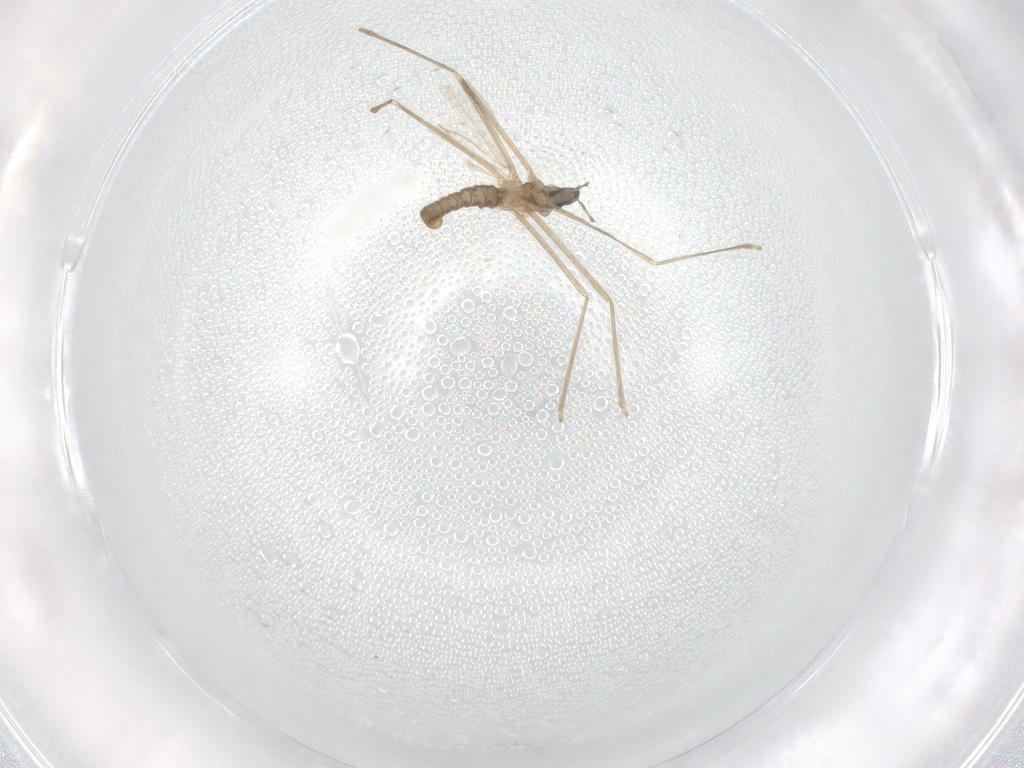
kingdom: Animalia
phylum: Arthropoda
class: Insecta
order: Diptera
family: Cecidomyiidae
